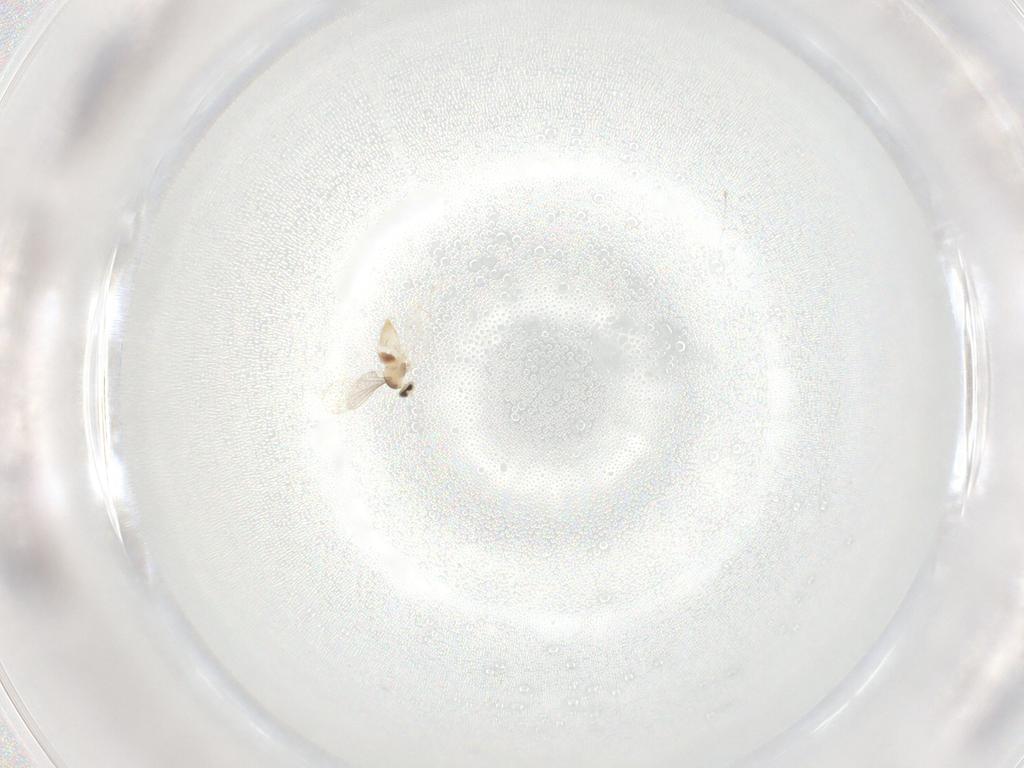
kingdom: Animalia
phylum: Arthropoda
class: Insecta
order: Diptera
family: Cecidomyiidae
